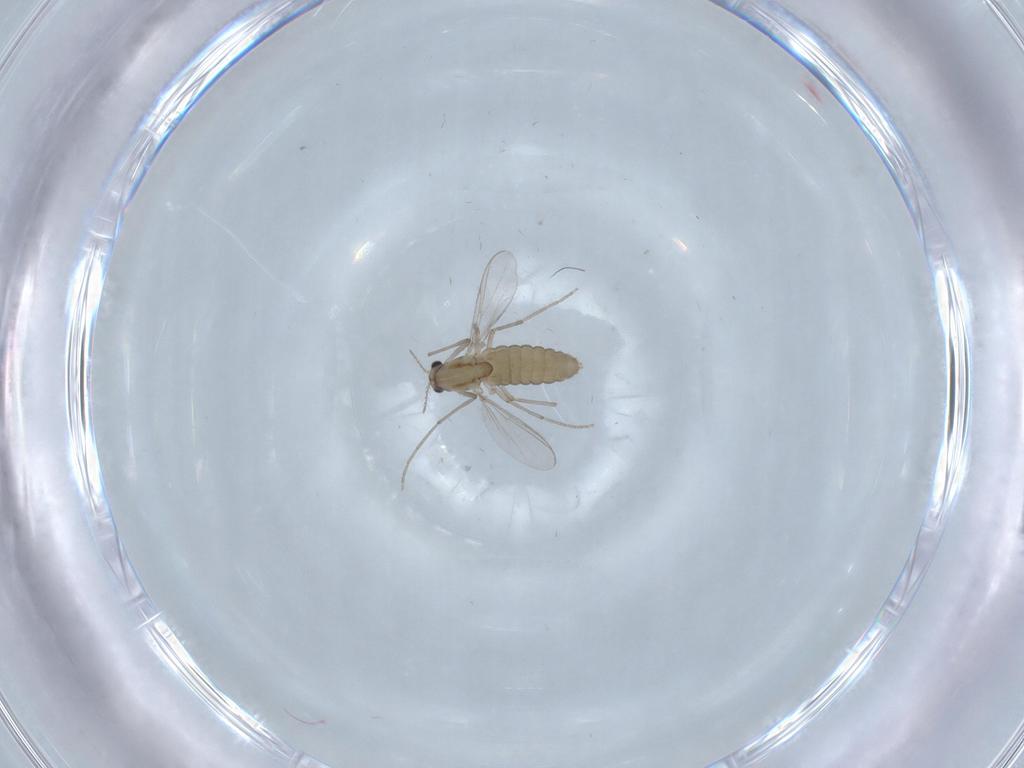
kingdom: Animalia
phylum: Arthropoda
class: Insecta
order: Diptera
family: Chironomidae
